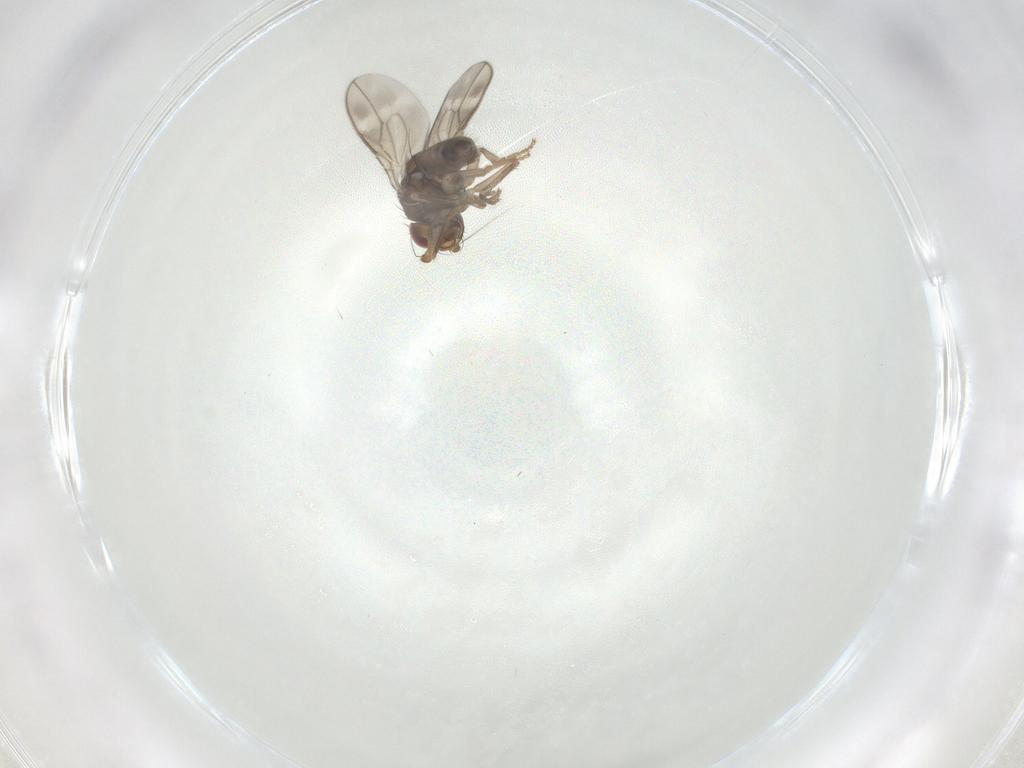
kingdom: Animalia
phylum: Arthropoda
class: Insecta
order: Diptera
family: Sphaeroceridae
